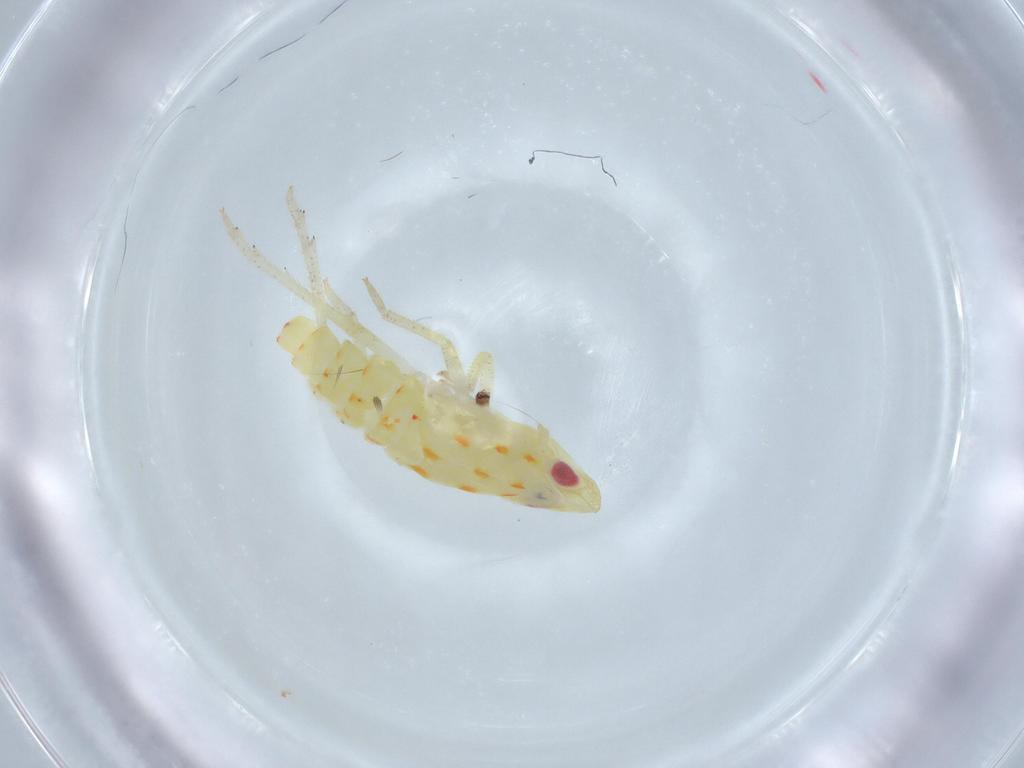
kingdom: Animalia
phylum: Arthropoda
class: Insecta
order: Hemiptera
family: Tropiduchidae
